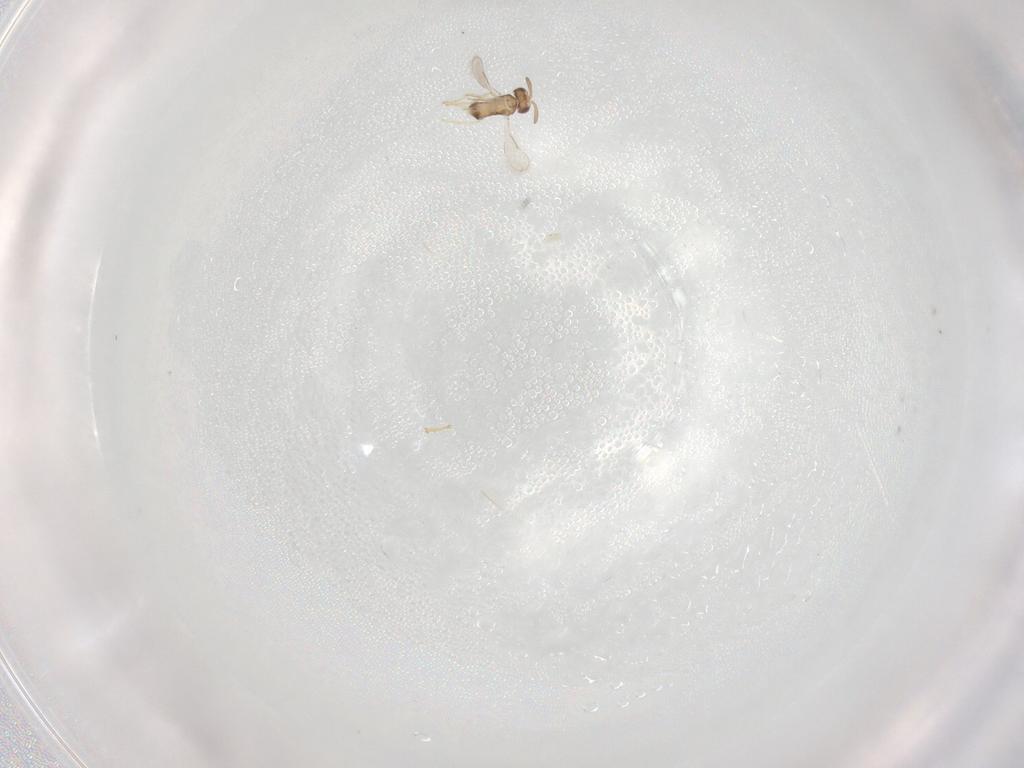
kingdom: Animalia
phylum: Arthropoda
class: Insecta
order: Hymenoptera
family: Aphelinidae
